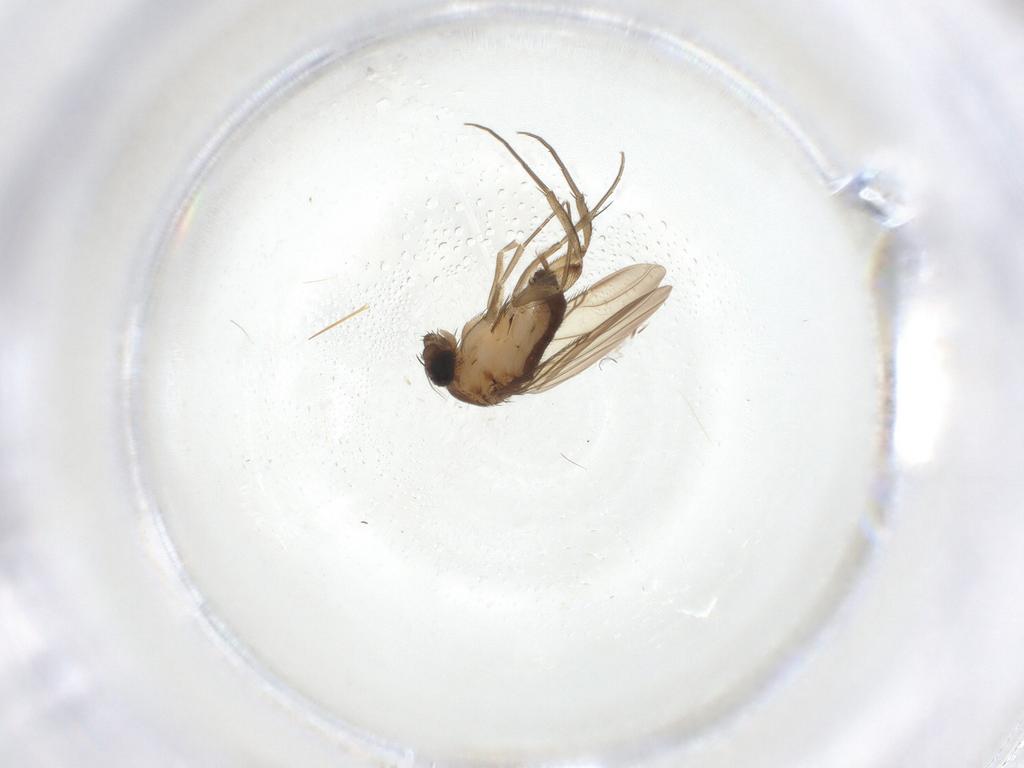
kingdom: Animalia
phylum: Arthropoda
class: Insecta
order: Diptera
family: Phoridae
